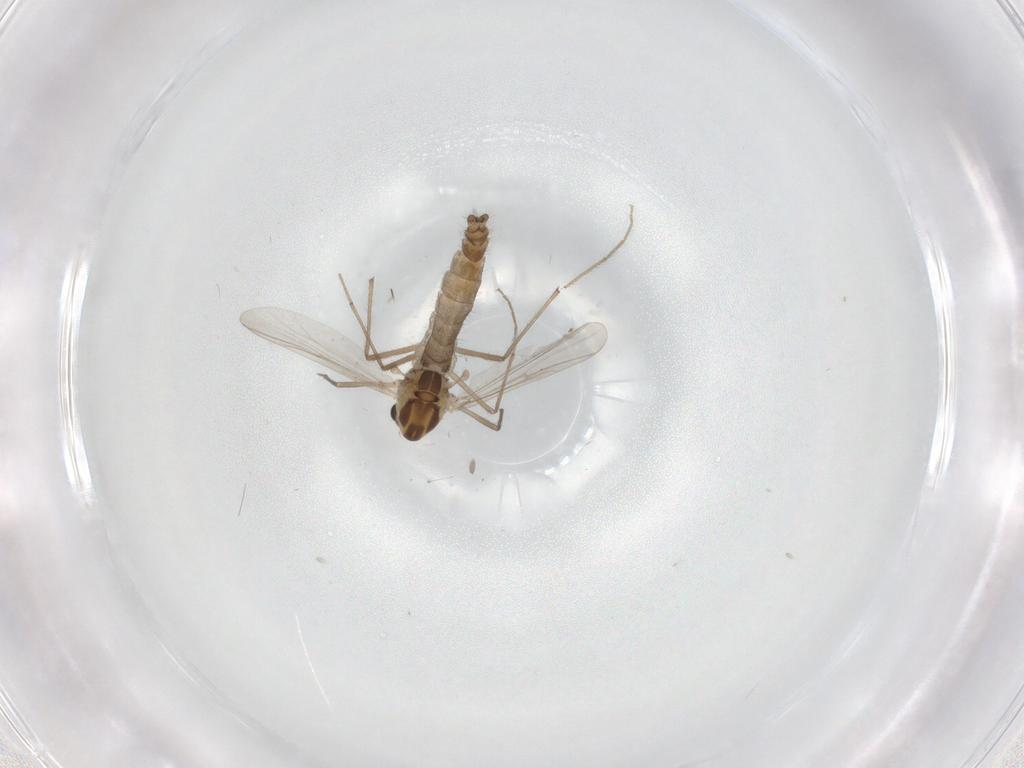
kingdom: Animalia
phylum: Arthropoda
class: Insecta
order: Diptera
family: Chironomidae
